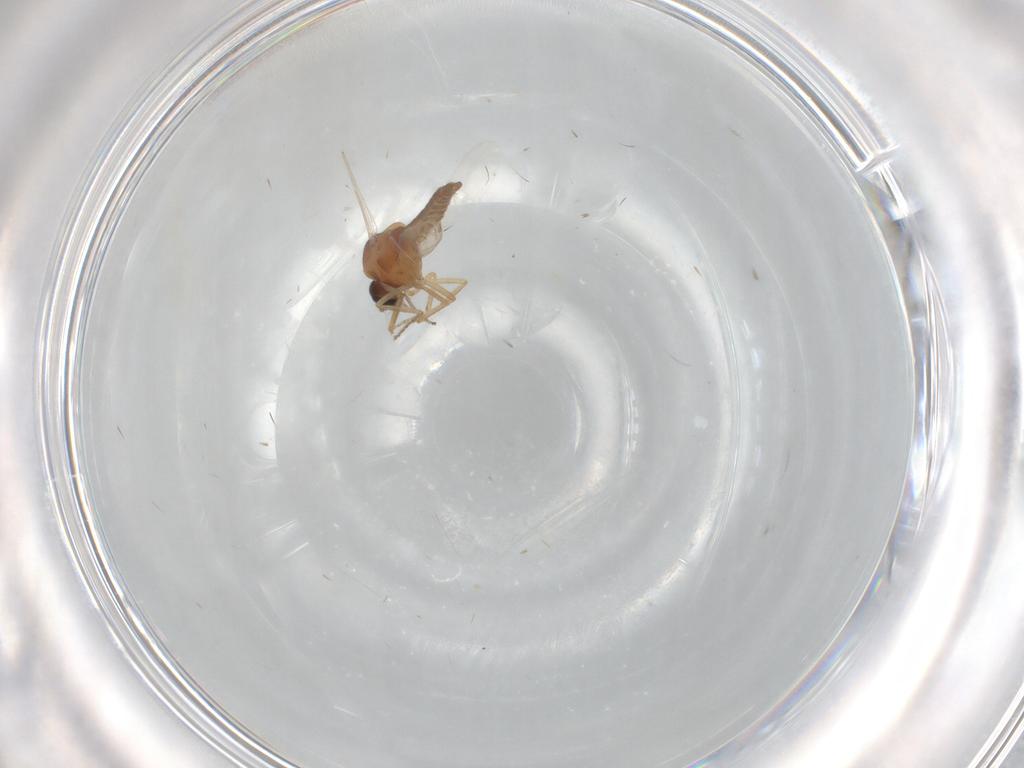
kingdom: Animalia
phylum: Arthropoda
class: Insecta
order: Diptera
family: Ceratopogonidae
